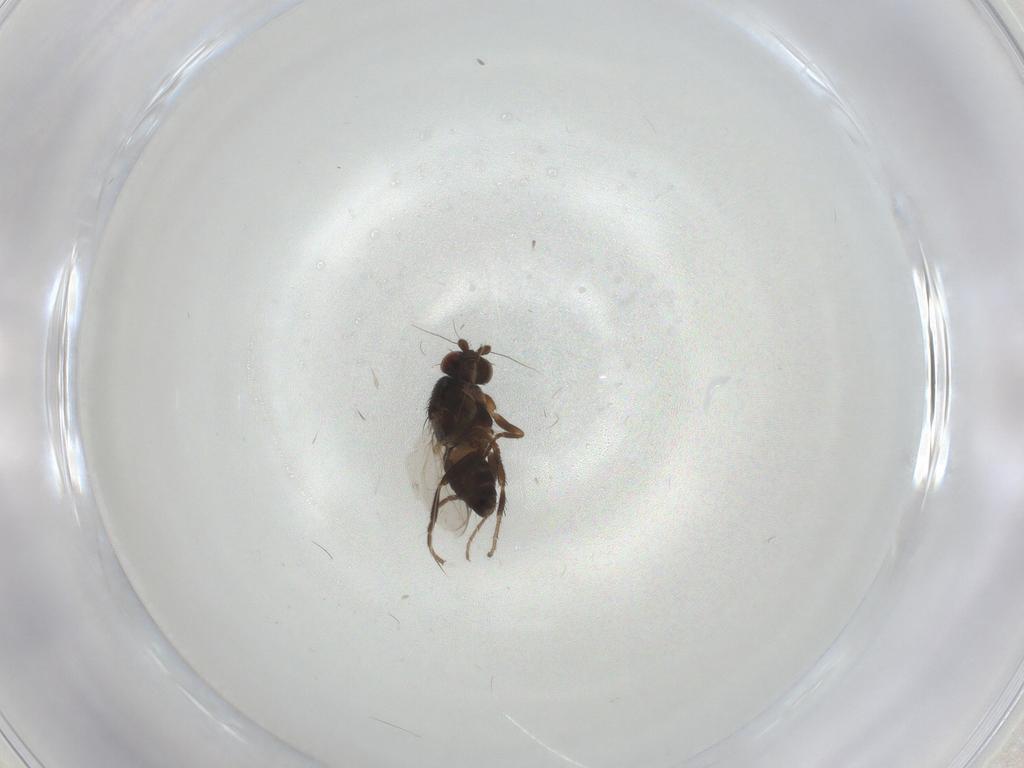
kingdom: Animalia
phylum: Arthropoda
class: Insecta
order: Diptera
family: Sphaeroceridae
